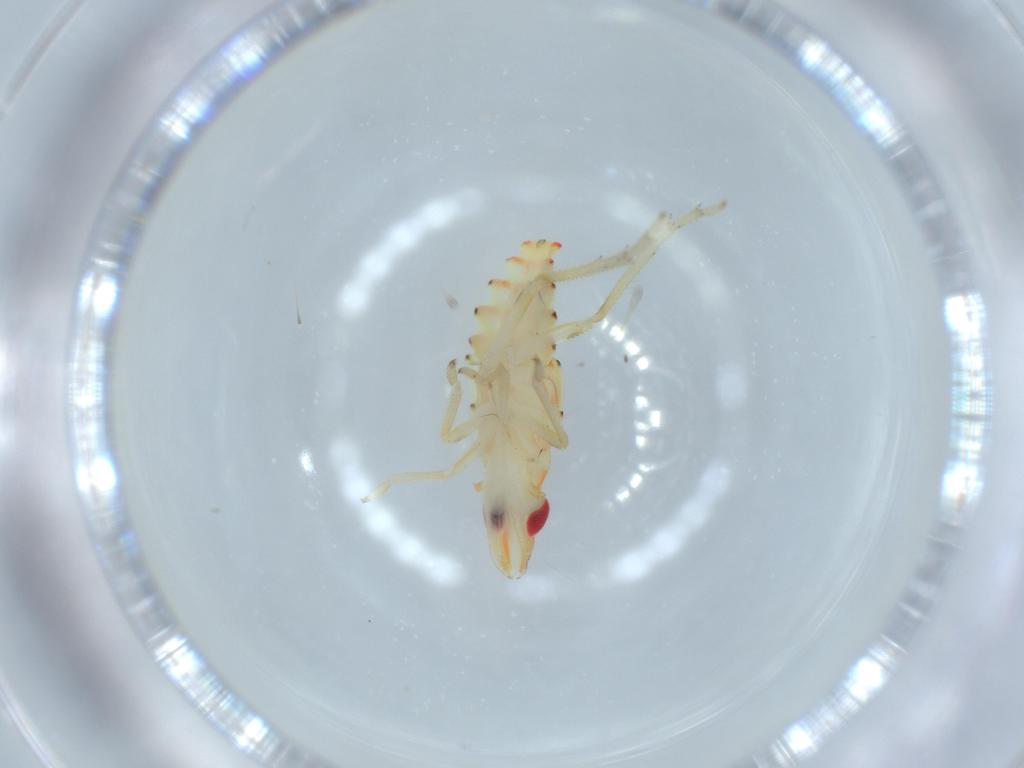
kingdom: Animalia
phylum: Arthropoda
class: Insecta
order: Hemiptera
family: Tropiduchidae
